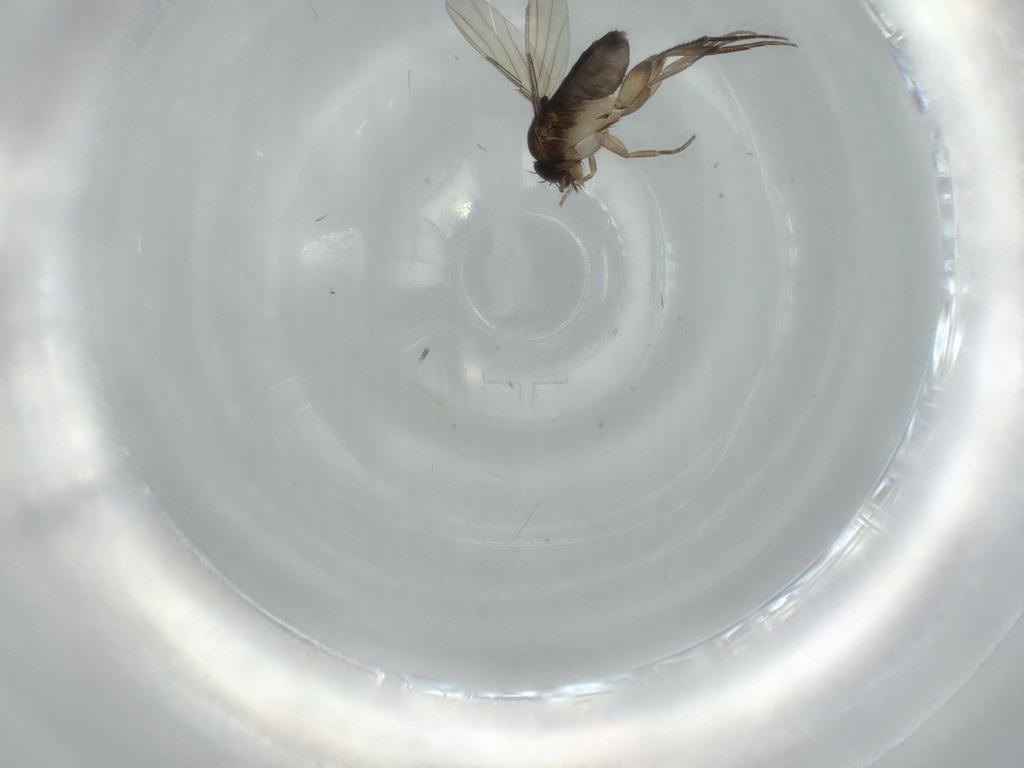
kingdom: Animalia
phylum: Arthropoda
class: Insecta
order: Diptera
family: Phoridae
